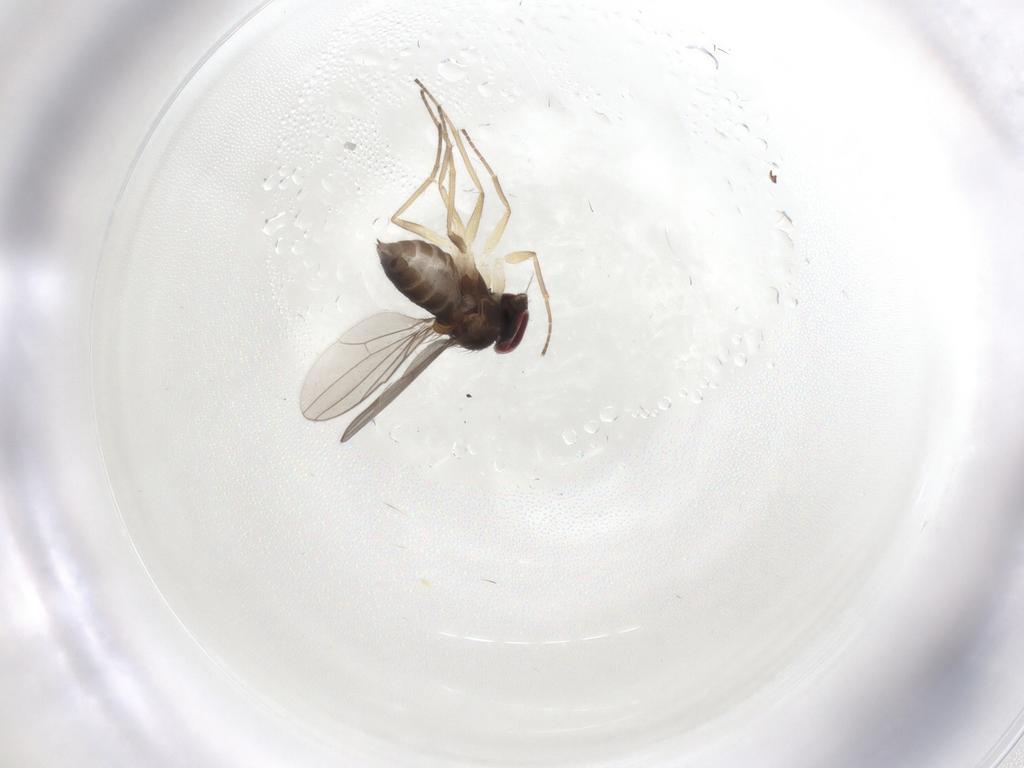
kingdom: Animalia
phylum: Arthropoda
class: Insecta
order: Diptera
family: Dolichopodidae
